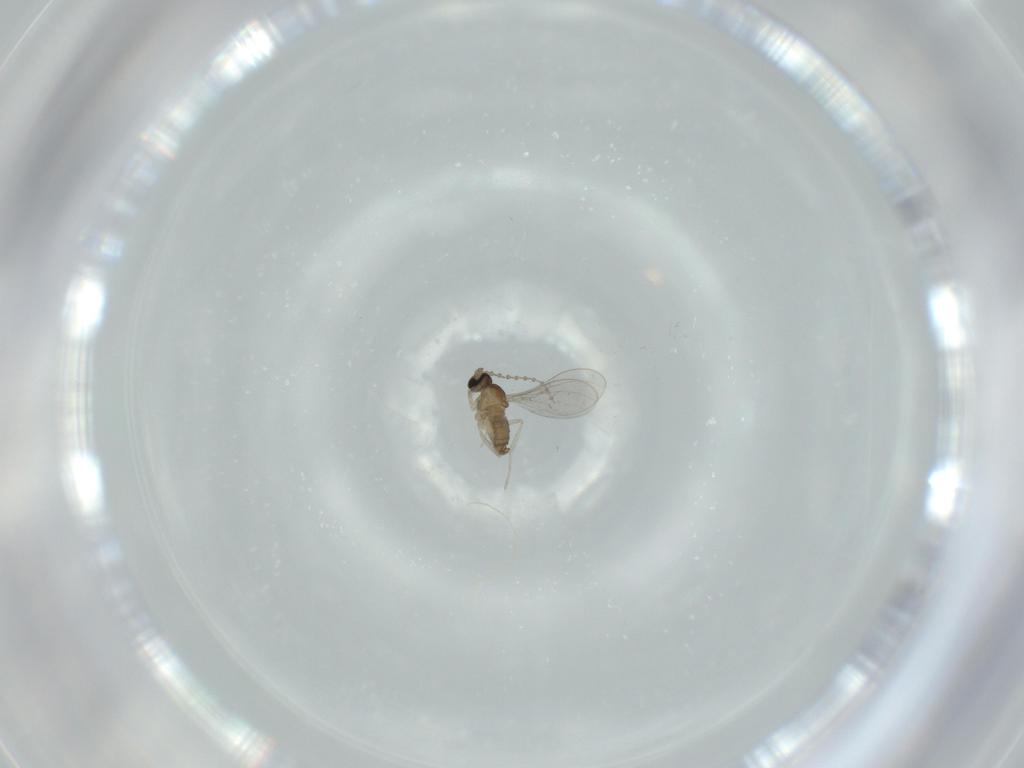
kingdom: Animalia
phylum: Arthropoda
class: Insecta
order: Diptera
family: Cecidomyiidae
